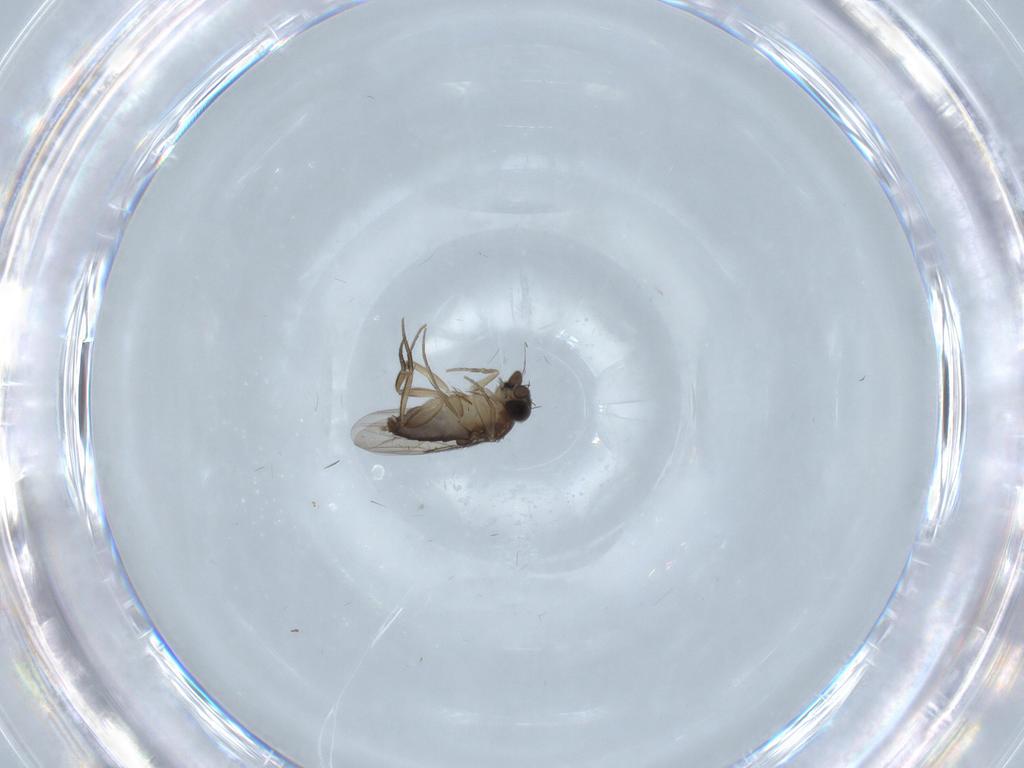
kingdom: Animalia
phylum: Arthropoda
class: Insecta
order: Diptera
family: Phoridae
